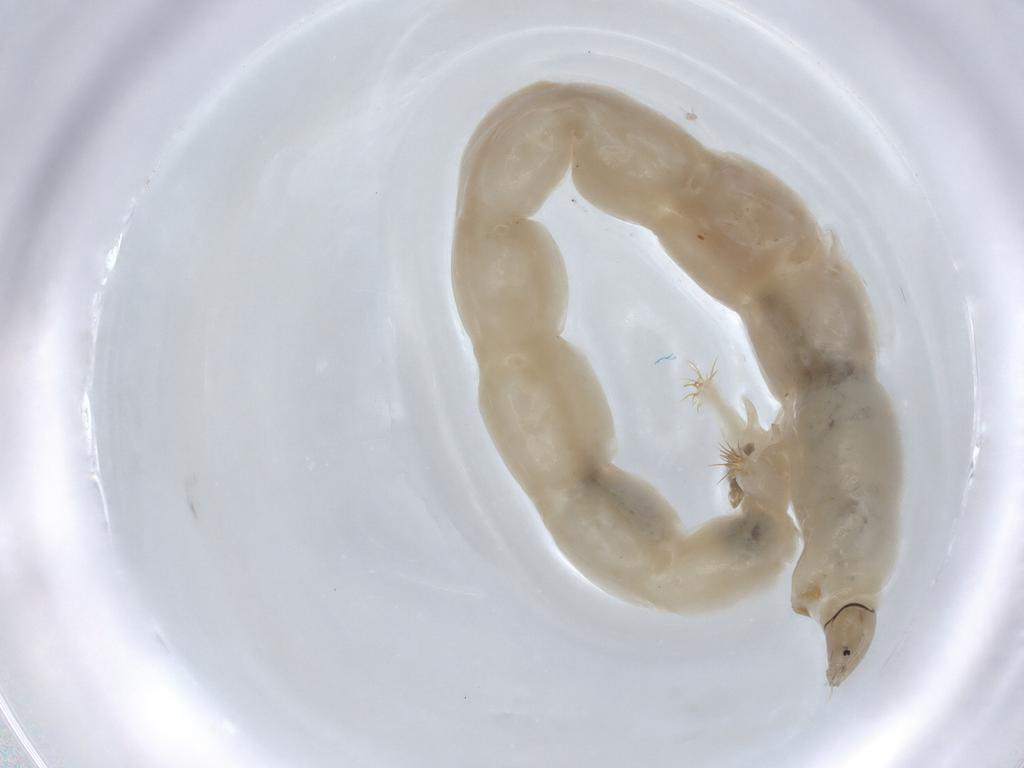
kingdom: Animalia
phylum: Arthropoda
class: Insecta
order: Diptera
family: Chironomidae
